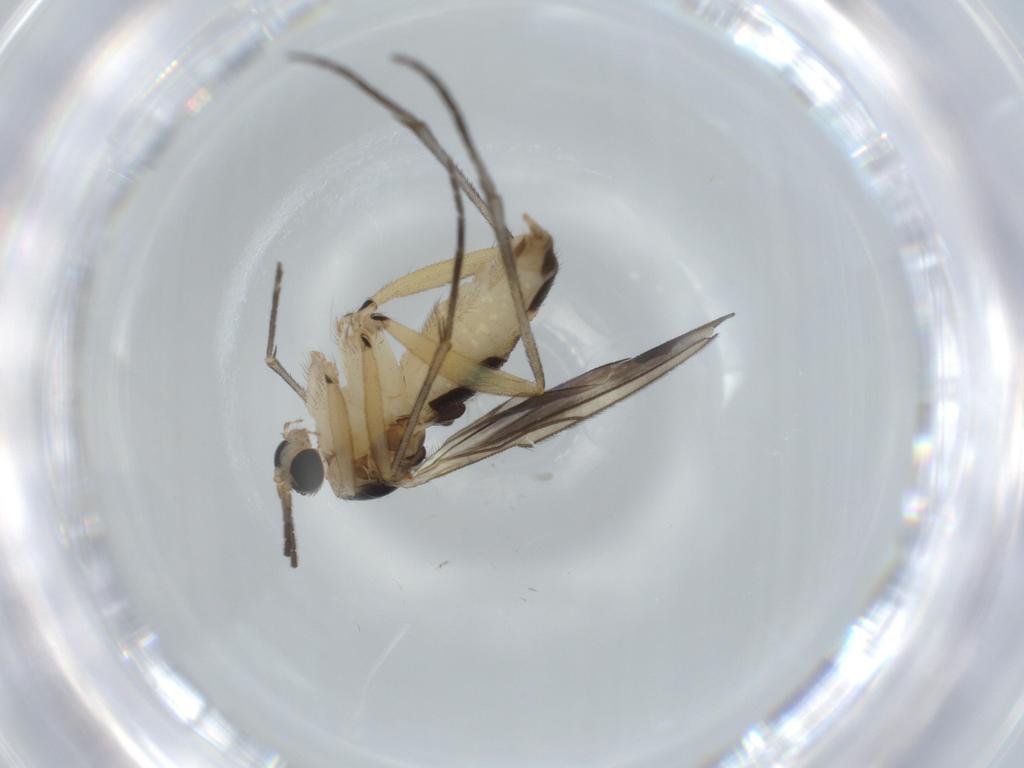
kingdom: Animalia
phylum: Arthropoda
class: Insecta
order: Diptera
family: Sciaridae
